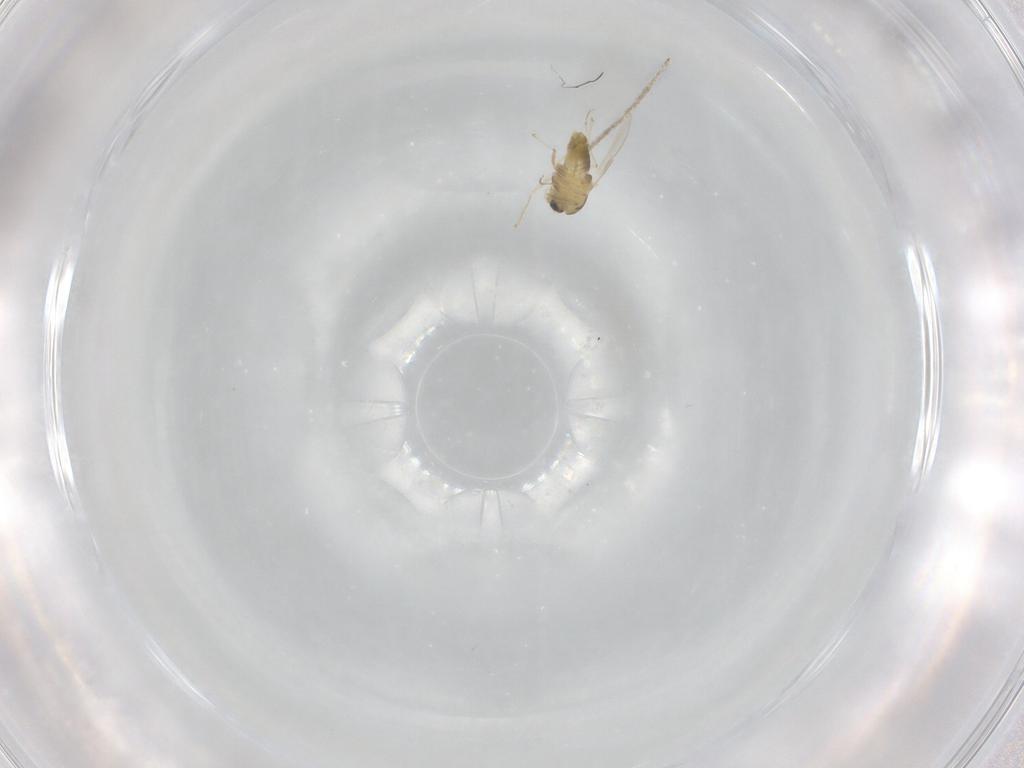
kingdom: Animalia
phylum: Arthropoda
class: Insecta
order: Diptera
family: Chironomidae
